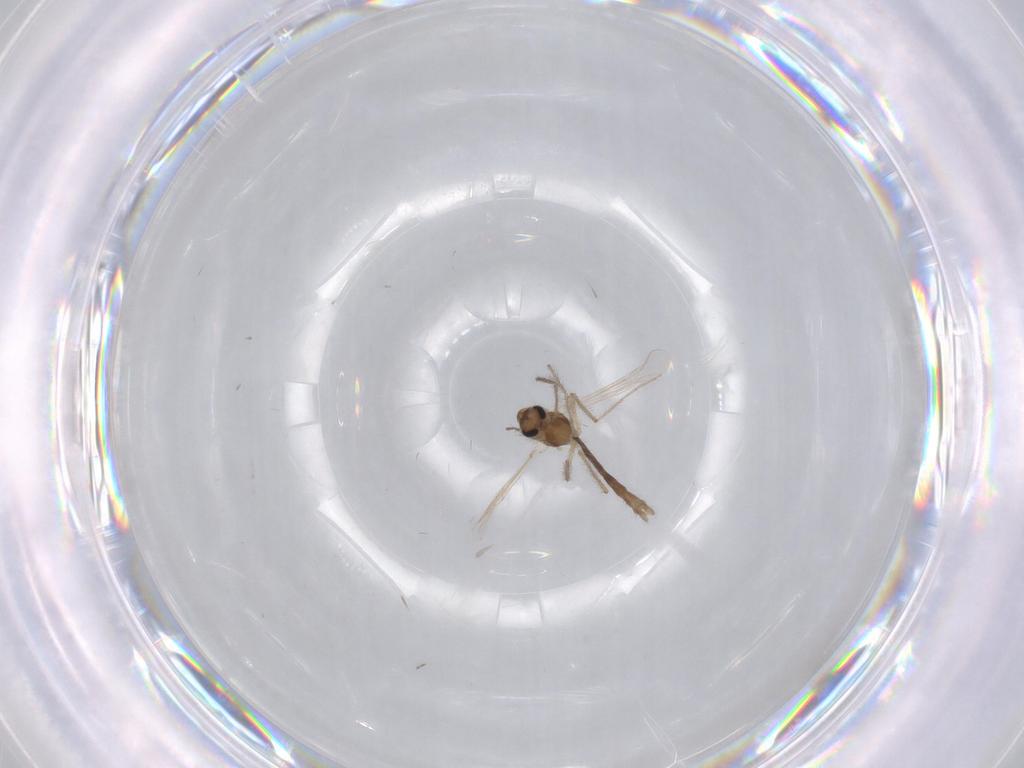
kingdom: Animalia
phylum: Arthropoda
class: Insecta
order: Diptera
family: Chironomidae
